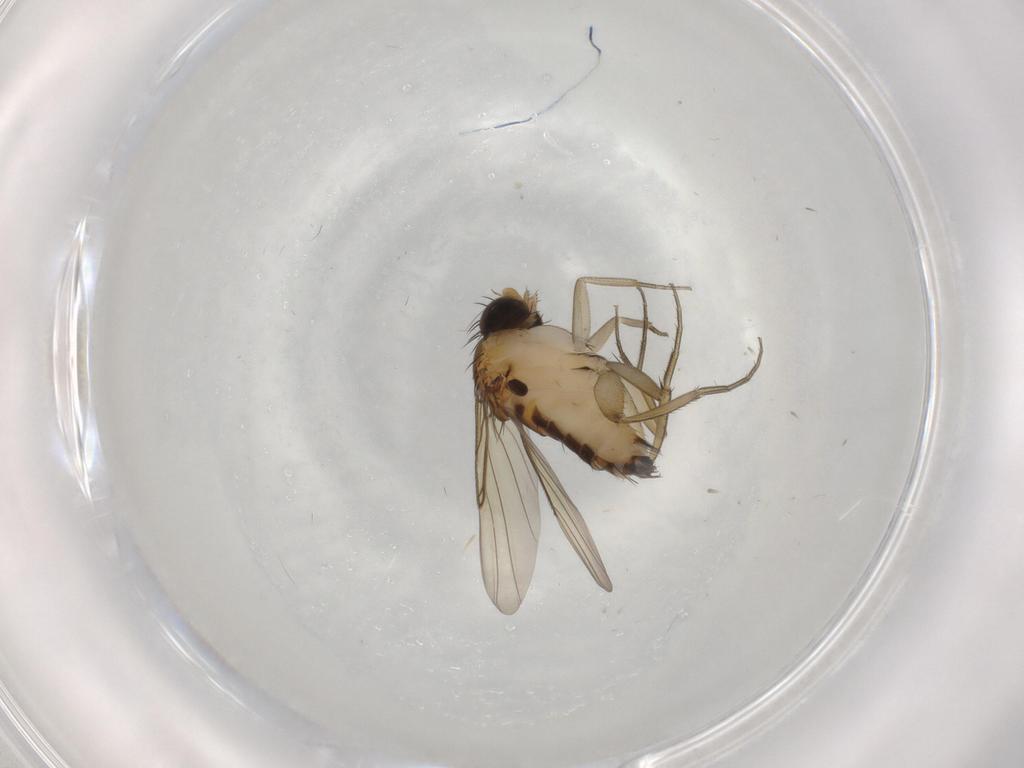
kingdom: Animalia
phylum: Arthropoda
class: Insecta
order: Diptera
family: Phoridae
